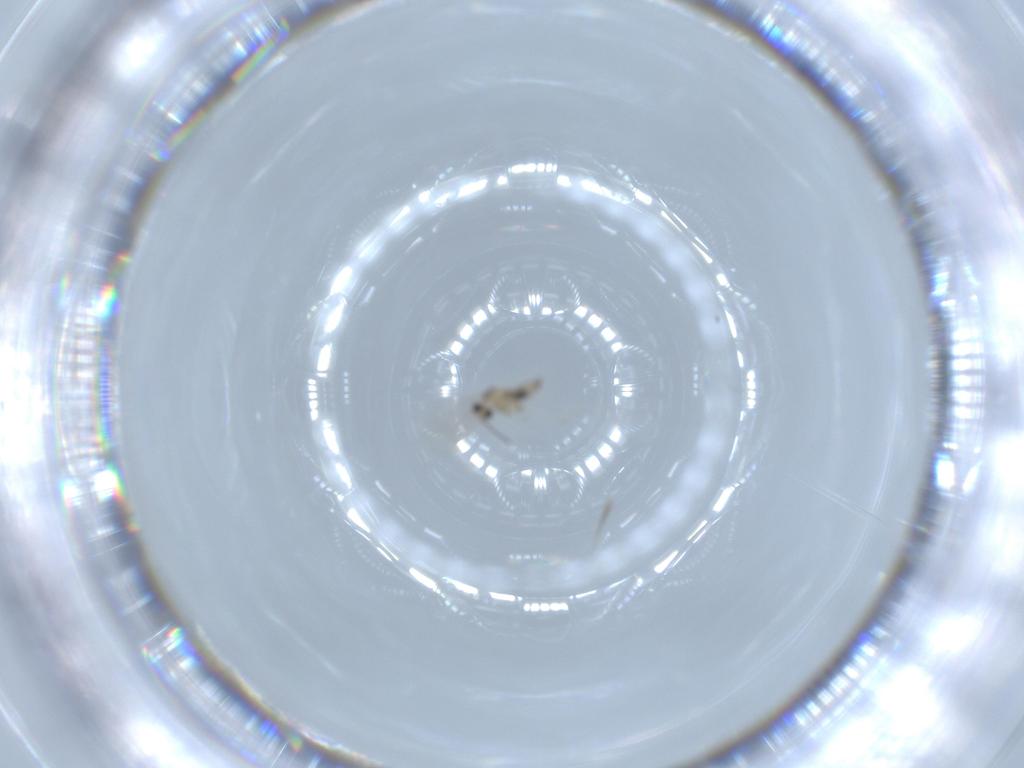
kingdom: Animalia
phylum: Arthropoda
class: Insecta
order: Diptera
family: Cecidomyiidae
